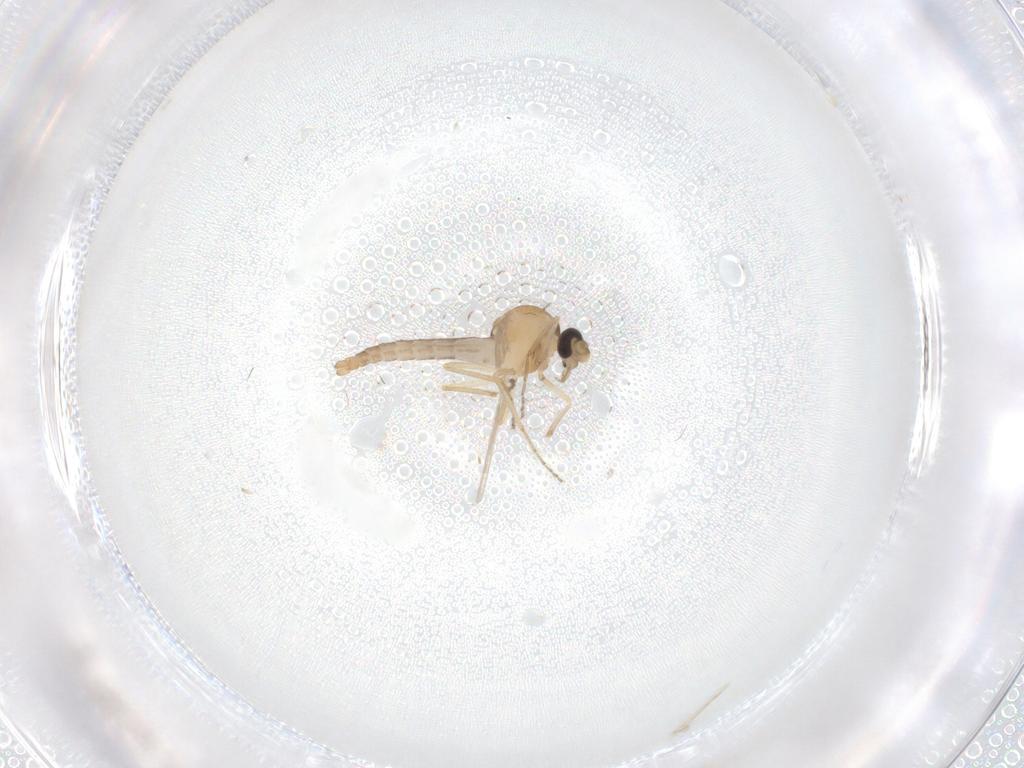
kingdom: Animalia
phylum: Arthropoda
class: Insecta
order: Diptera
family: Ceratopogonidae
